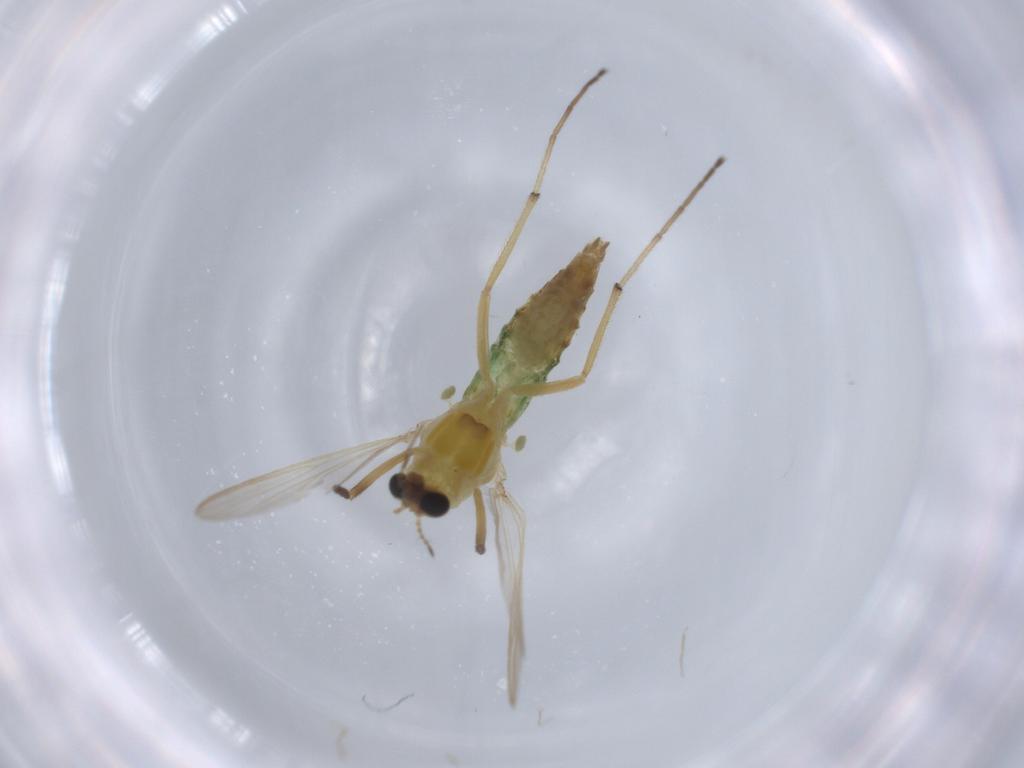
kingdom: Animalia
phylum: Arthropoda
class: Insecta
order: Diptera
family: Chironomidae
